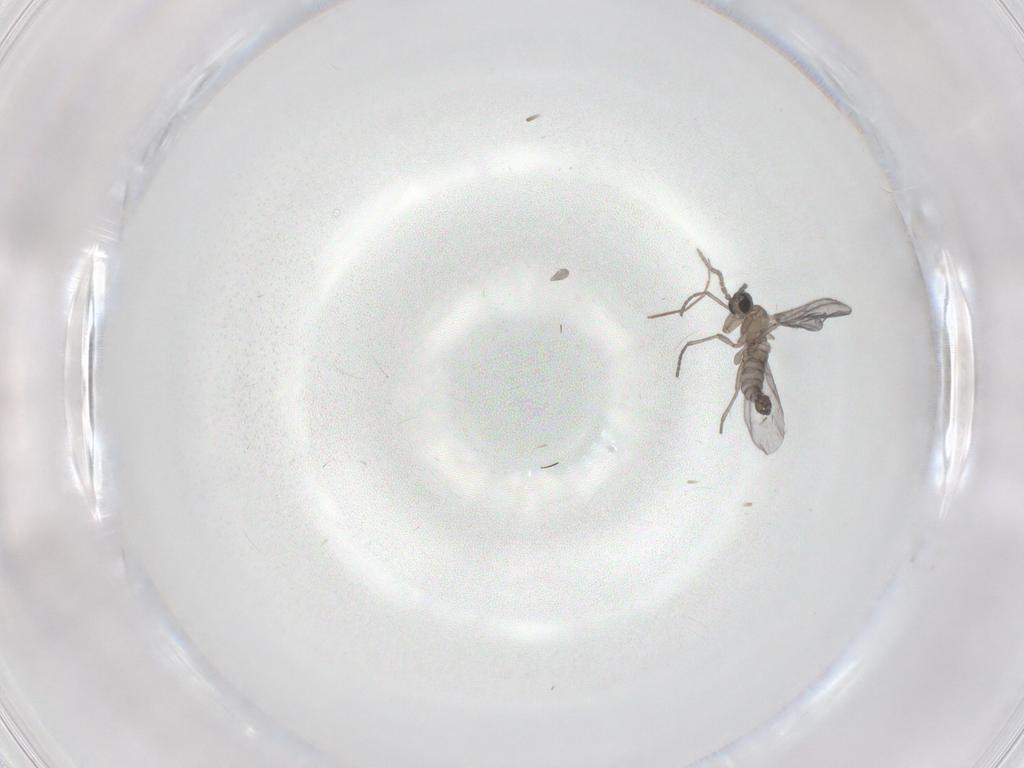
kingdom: Animalia
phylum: Arthropoda
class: Insecta
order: Diptera
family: Sciaridae
